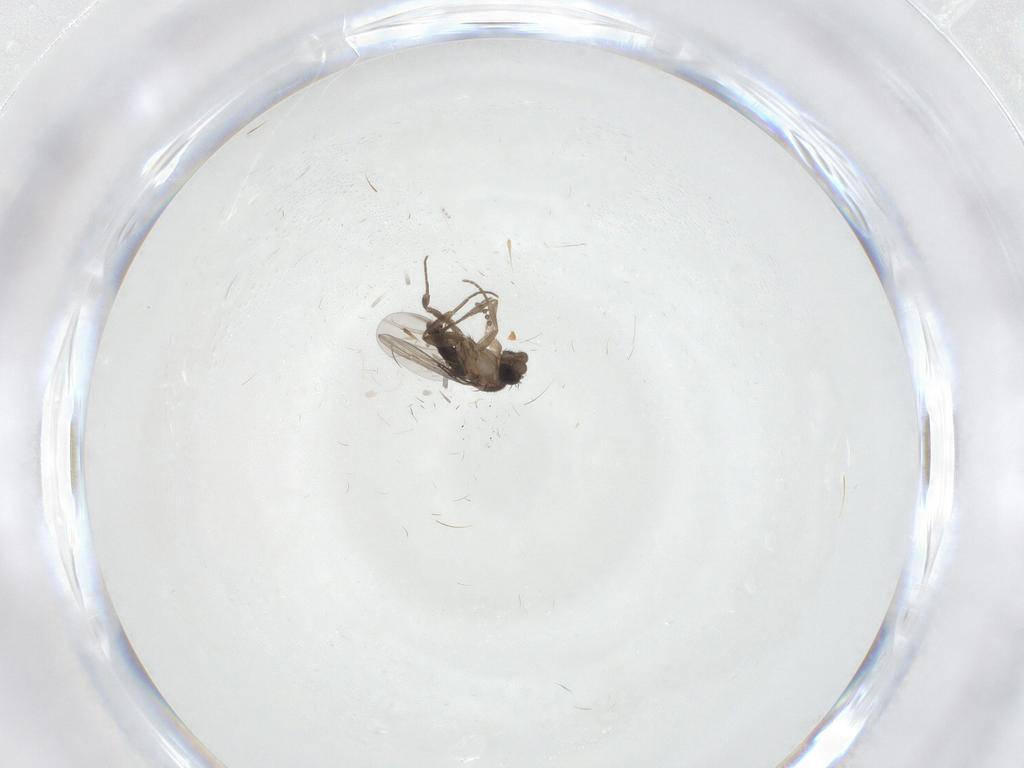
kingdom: Animalia
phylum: Arthropoda
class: Insecta
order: Diptera
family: Phoridae
